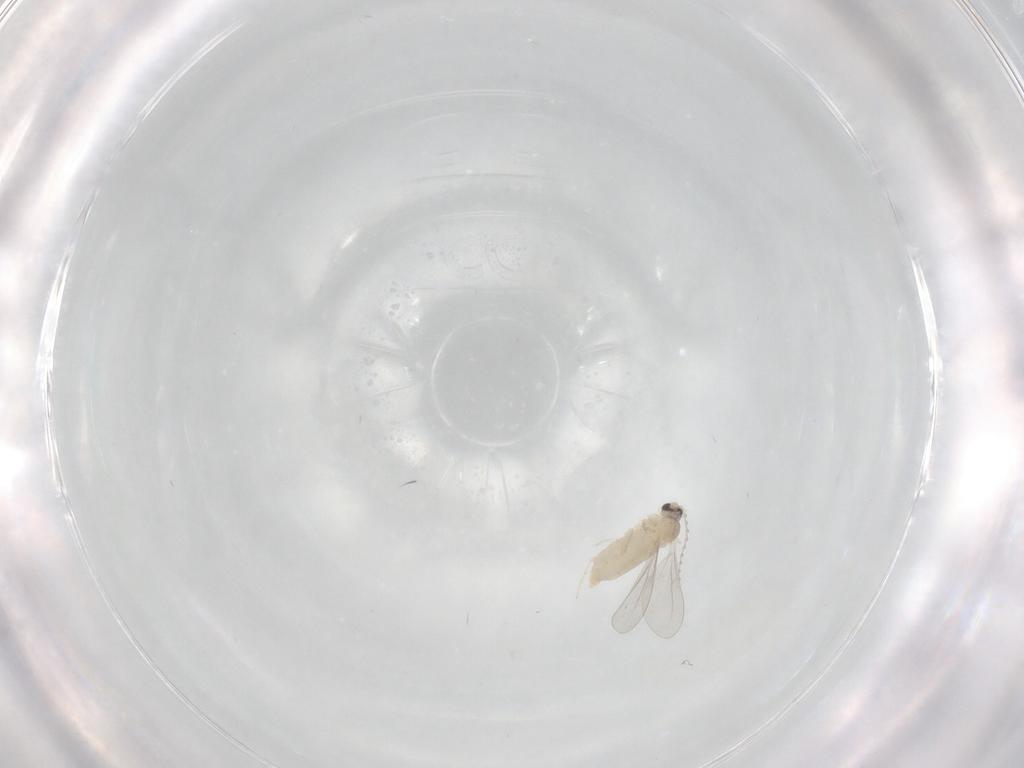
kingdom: Animalia
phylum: Arthropoda
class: Insecta
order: Diptera
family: Cecidomyiidae
